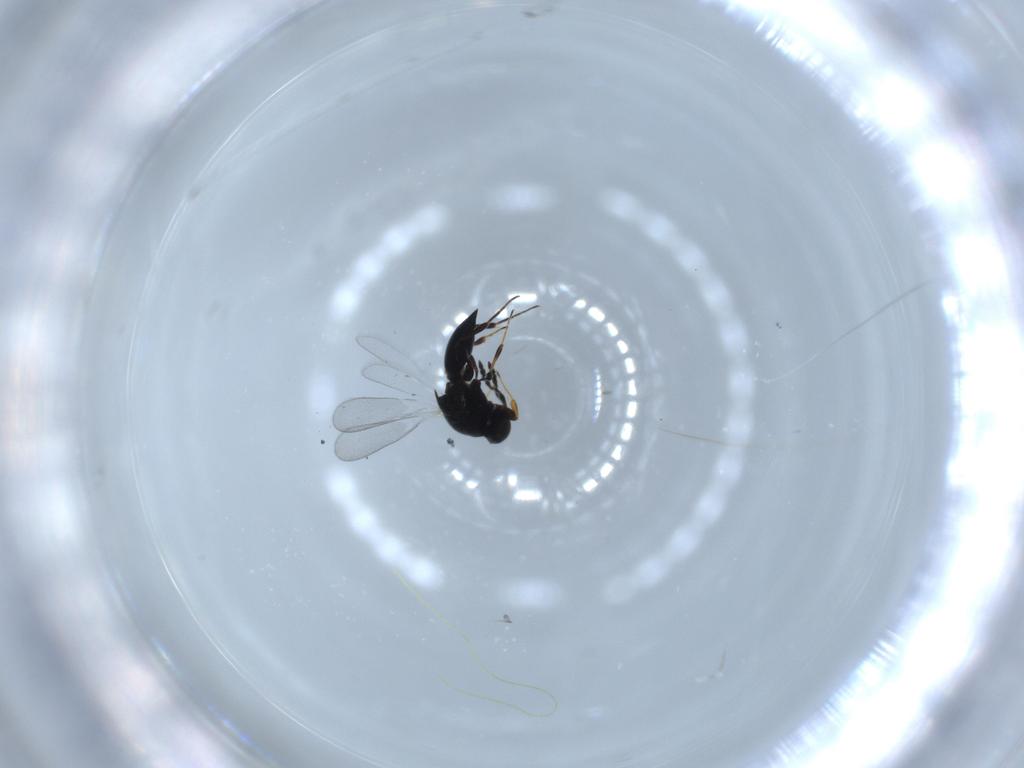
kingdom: Animalia
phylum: Arthropoda
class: Insecta
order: Hymenoptera
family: Platygastridae
